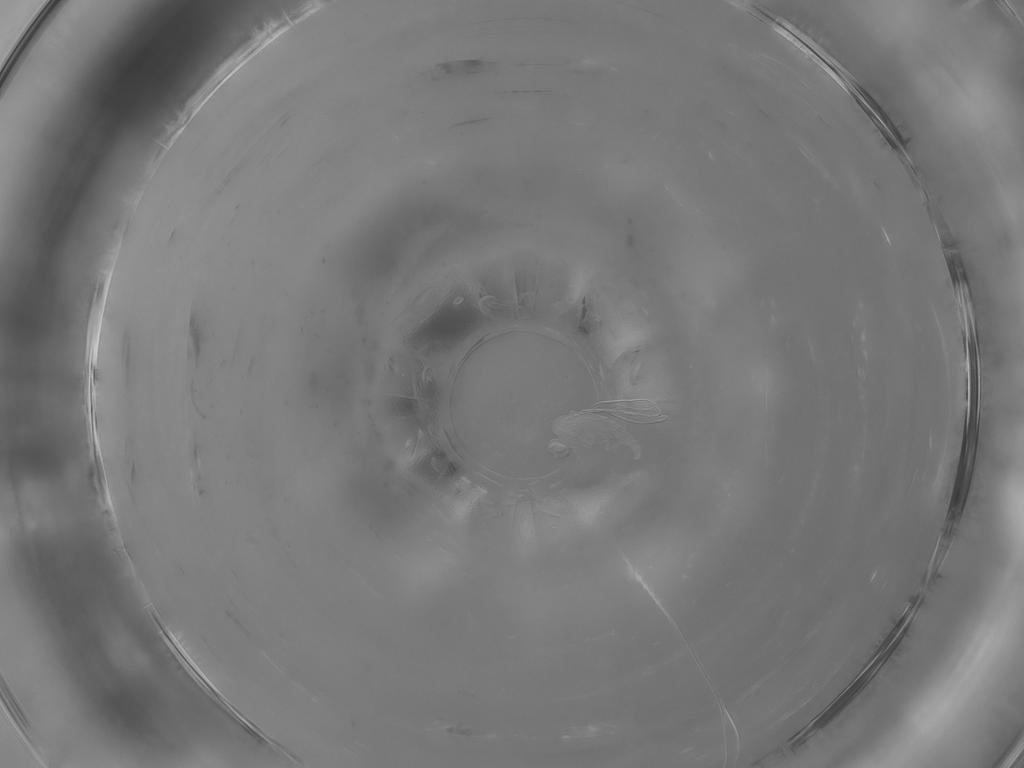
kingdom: Animalia
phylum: Arthropoda
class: Insecta
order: Diptera
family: Cecidomyiidae
